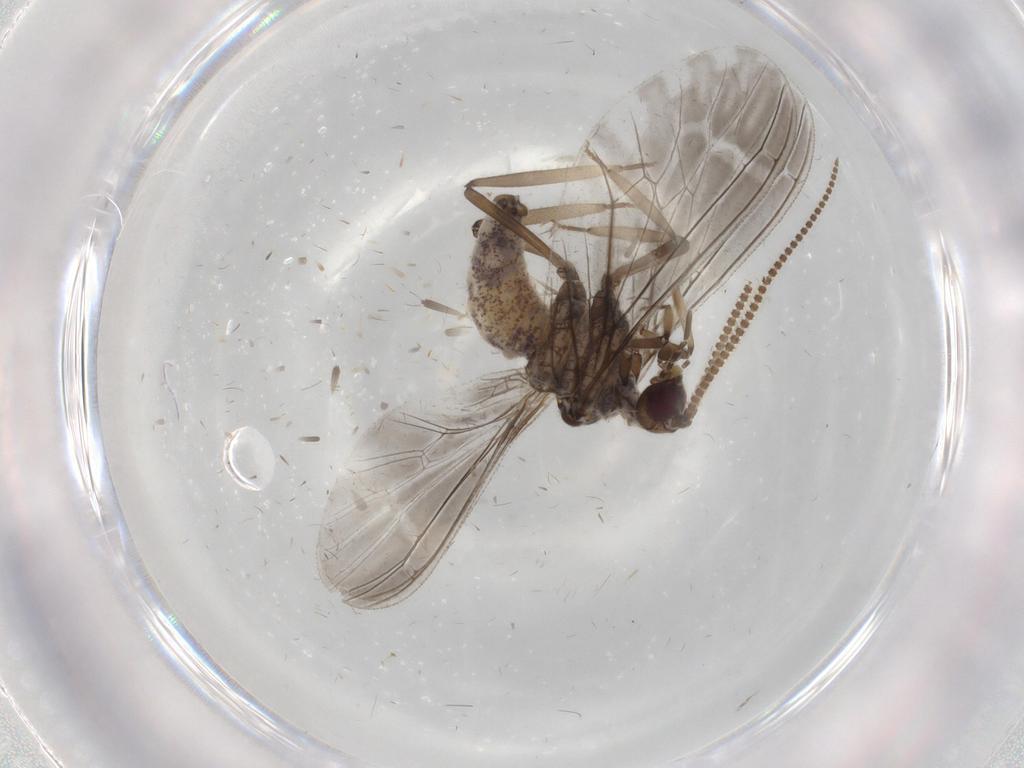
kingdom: Animalia
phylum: Arthropoda
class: Insecta
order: Neuroptera
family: Coniopterygidae
